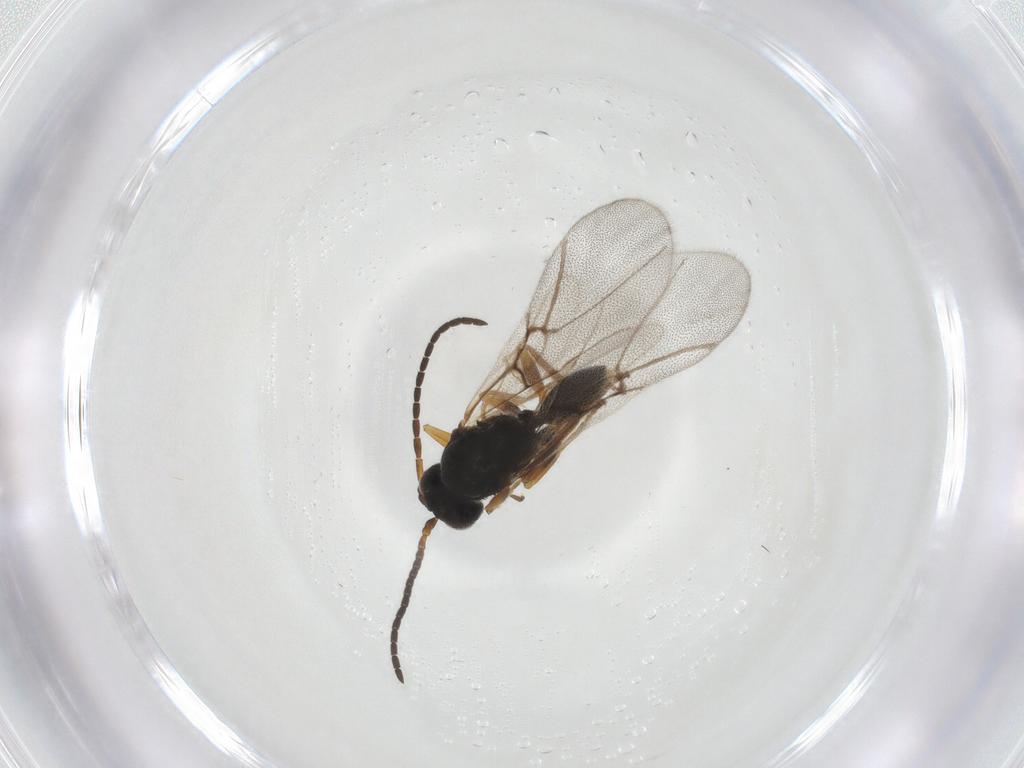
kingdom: Animalia
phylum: Arthropoda
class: Insecta
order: Hymenoptera
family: Cynipidae
